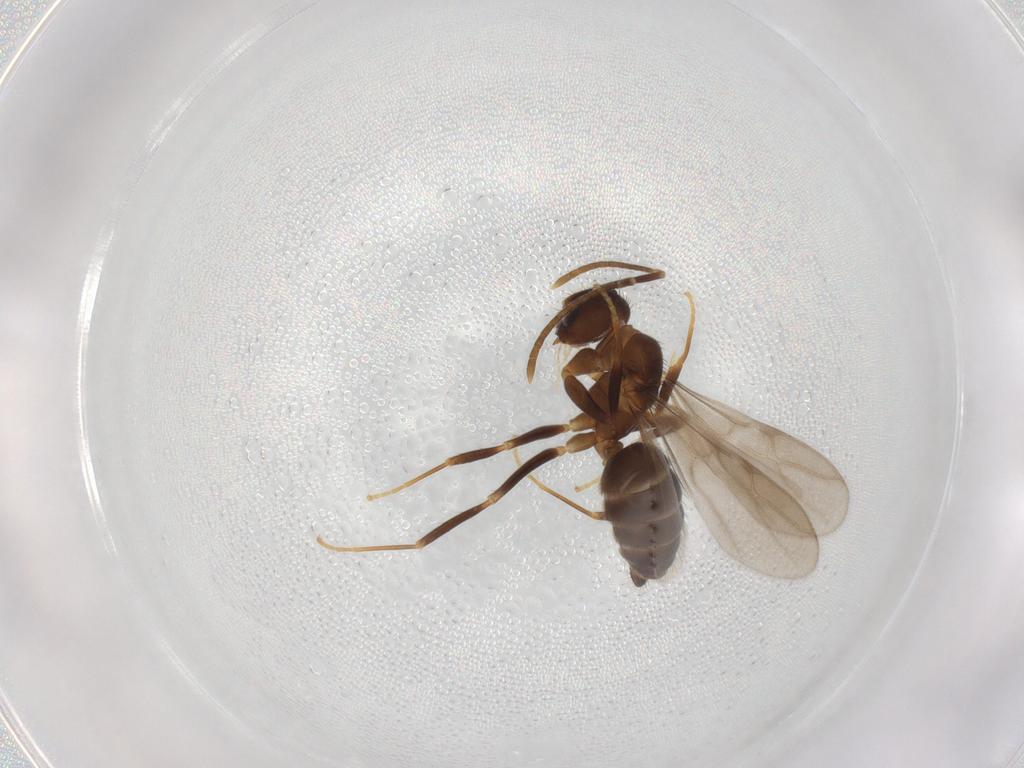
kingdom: Animalia
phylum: Arthropoda
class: Insecta
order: Hymenoptera
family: Formicidae
